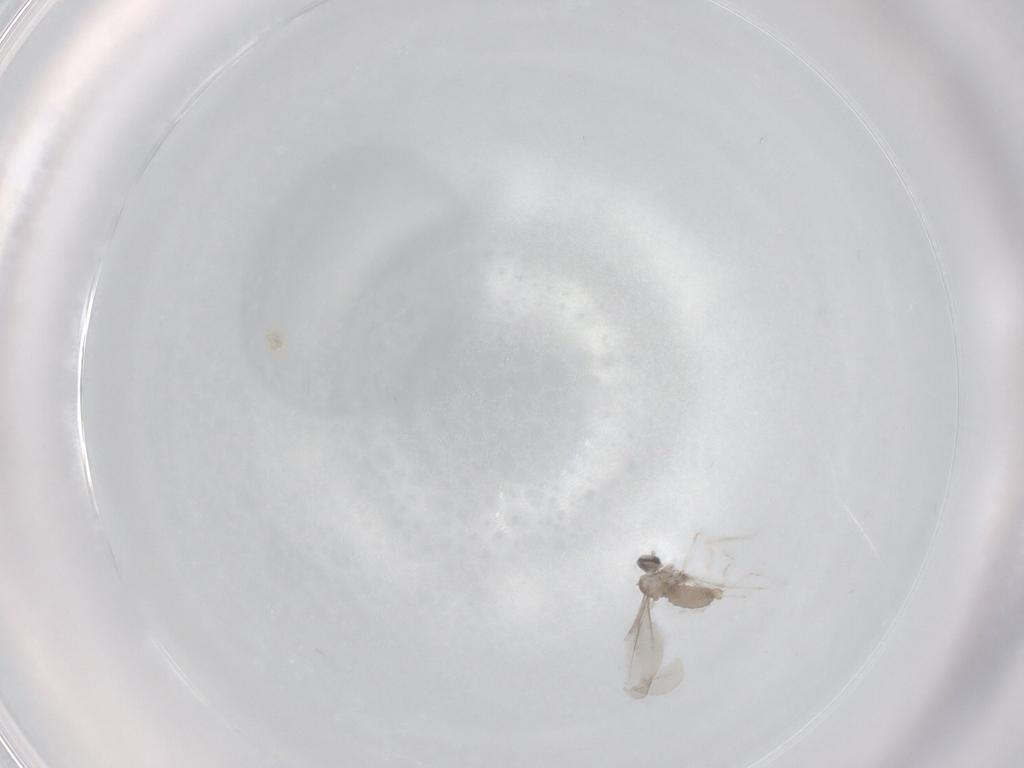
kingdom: Animalia
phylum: Arthropoda
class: Insecta
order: Diptera
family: Cecidomyiidae
